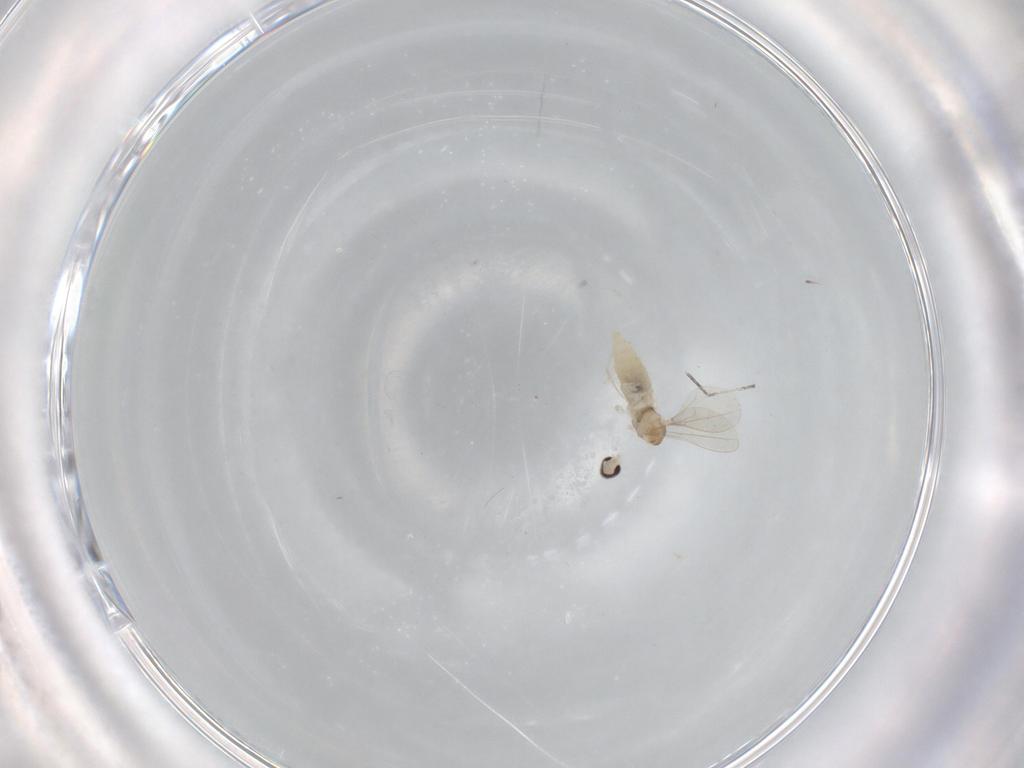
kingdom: Animalia
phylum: Arthropoda
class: Insecta
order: Diptera
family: Cecidomyiidae
